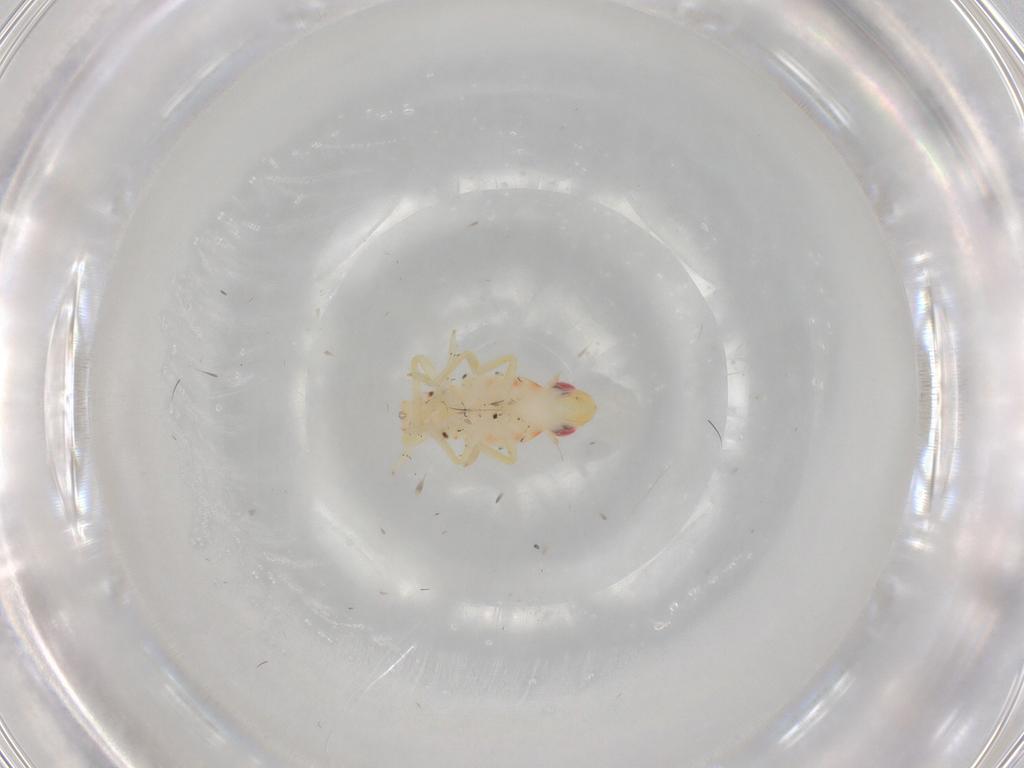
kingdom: Animalia
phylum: Arthropoda
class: Insecta
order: Hemiptera
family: Tropiduchidae
